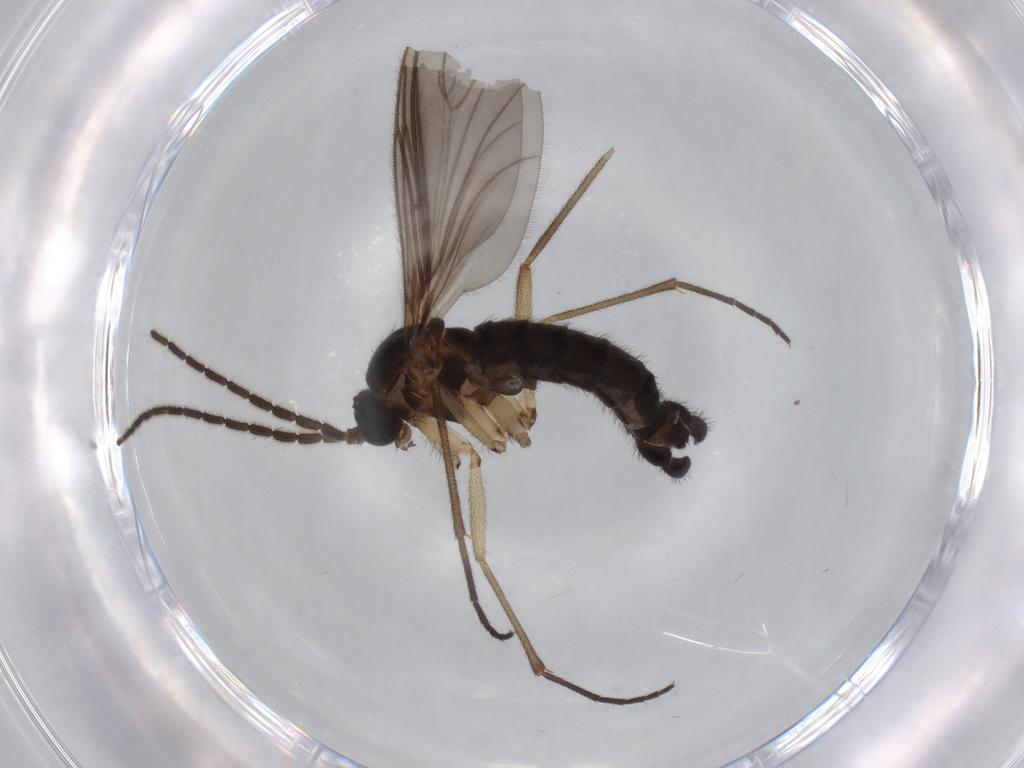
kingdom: Animalia
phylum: Arthropoda
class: Insecta
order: Diptera
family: Sciaridae
